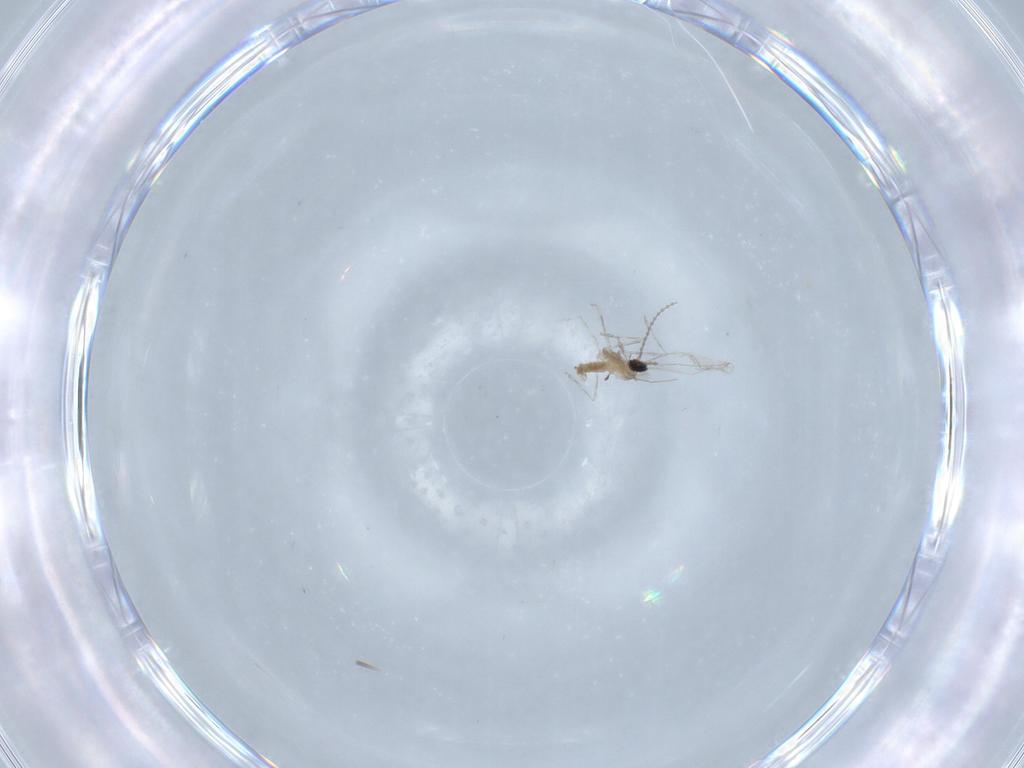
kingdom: Animalia
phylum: Arthropoda
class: Insecta
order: Diptera
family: Cecidomyiidae
